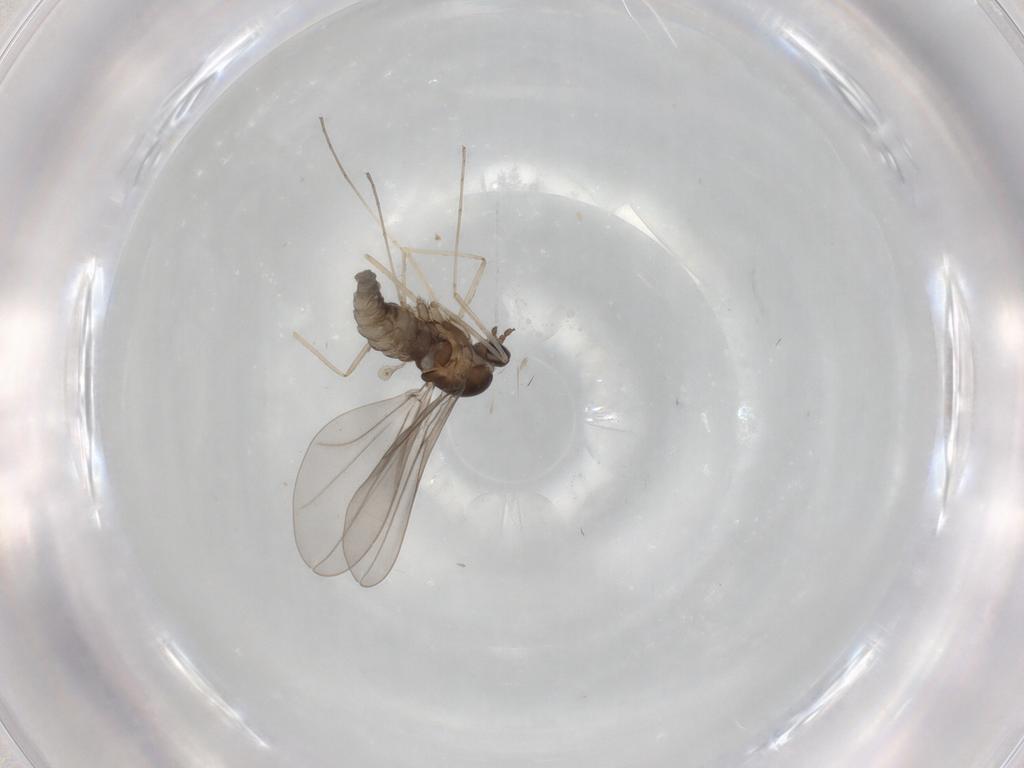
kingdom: Animalia
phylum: Arthropoda
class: Insecta
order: Diptera
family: Cecidomyiidae
